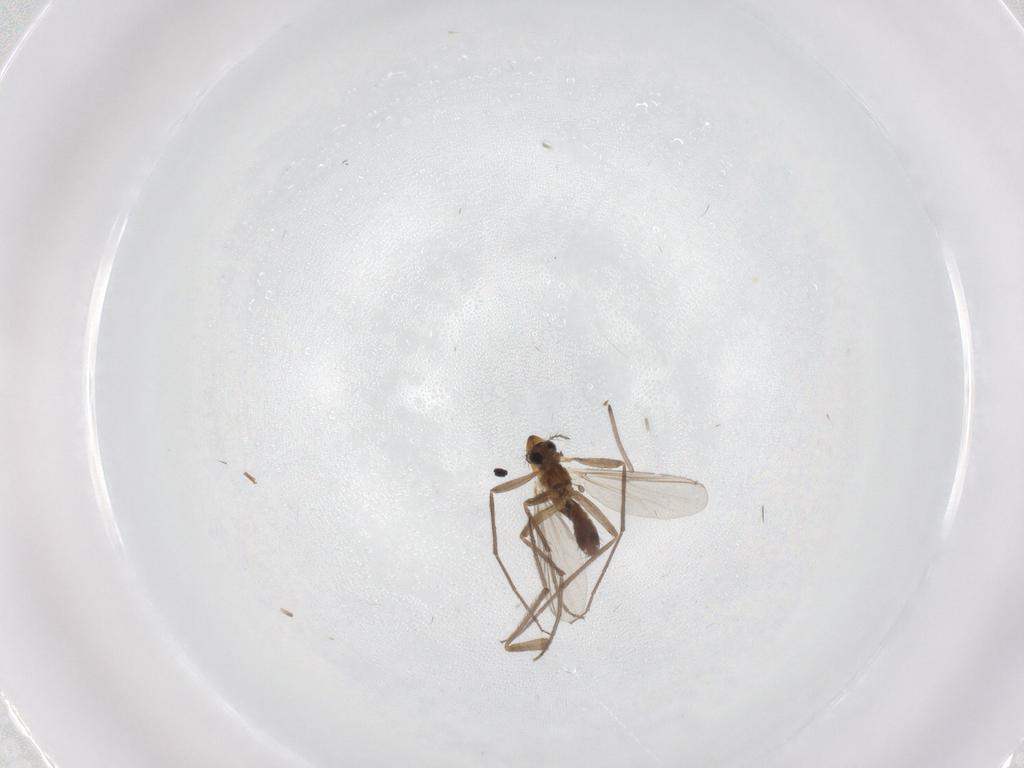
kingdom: Animalia
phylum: Arthropoda
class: Insecta
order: Diptera
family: Chironomidae
